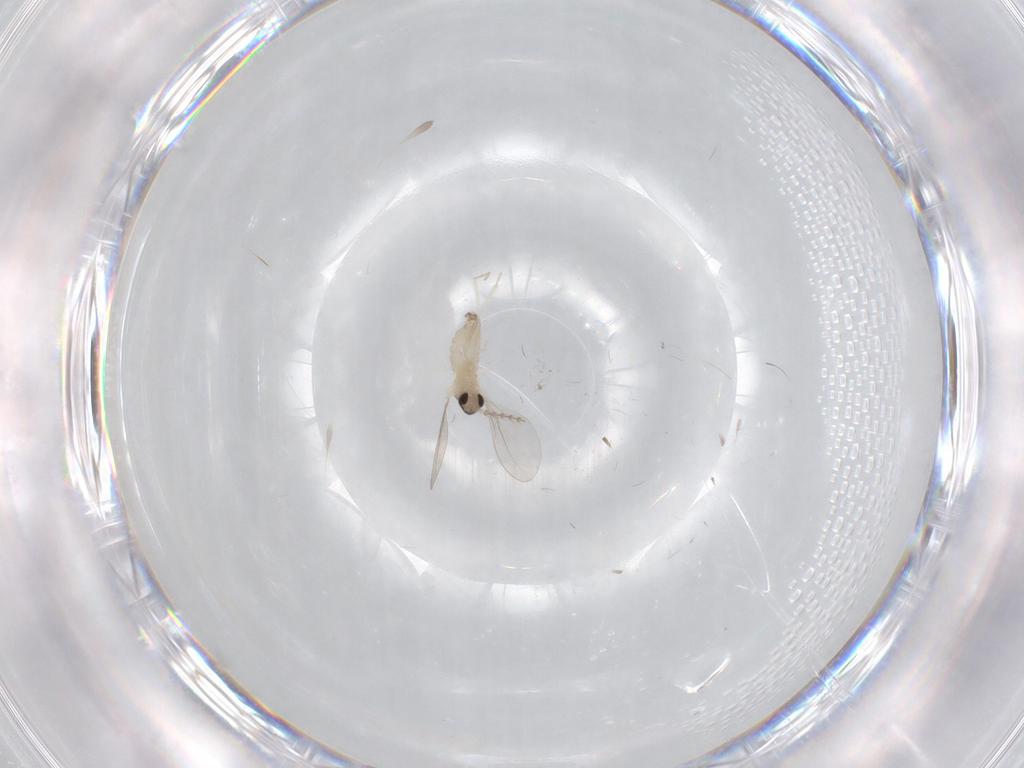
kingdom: Animalia
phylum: Arthropoda
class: Insecta
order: Diptera
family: Cecidomyiidae
